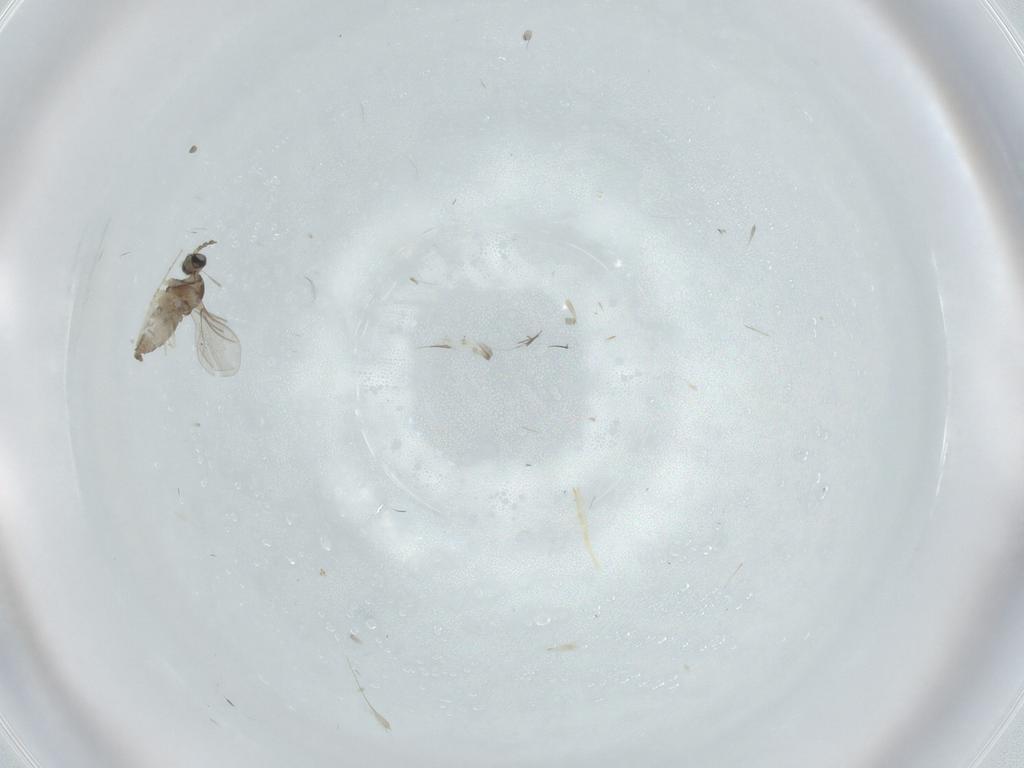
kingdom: Animalia
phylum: Arthropoda
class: Insecta
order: Diptera
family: Cecidomyiidae
